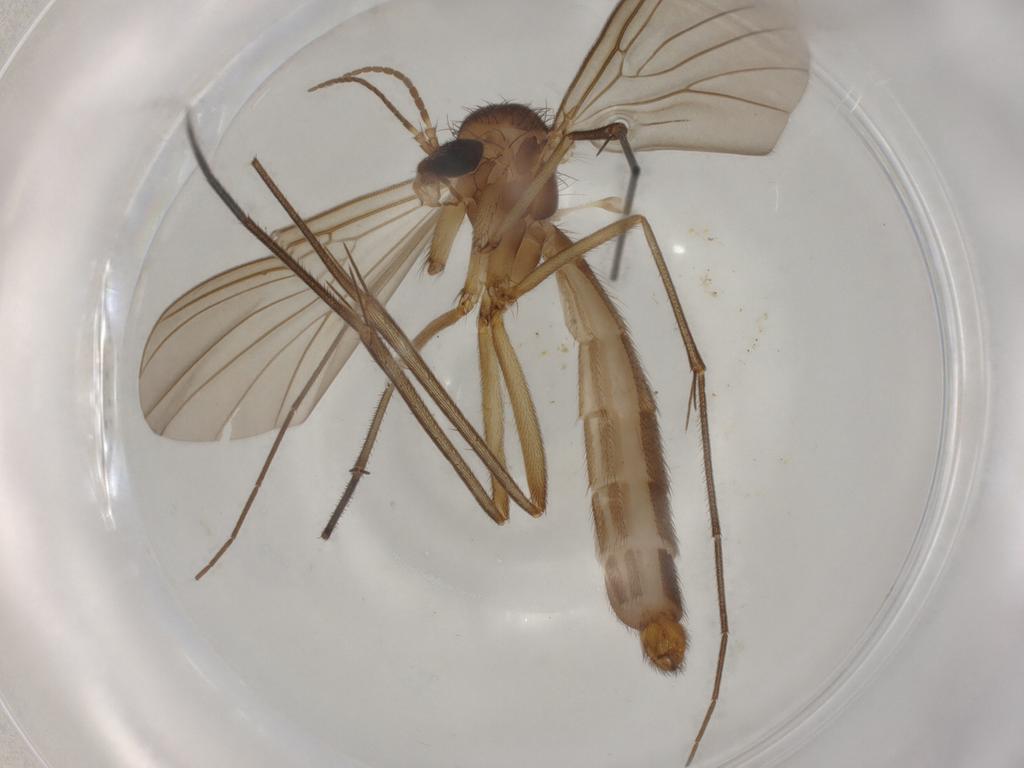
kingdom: Animalia
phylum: Arthropoda
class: Insecta
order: Diptera
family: Mycetophilidae
